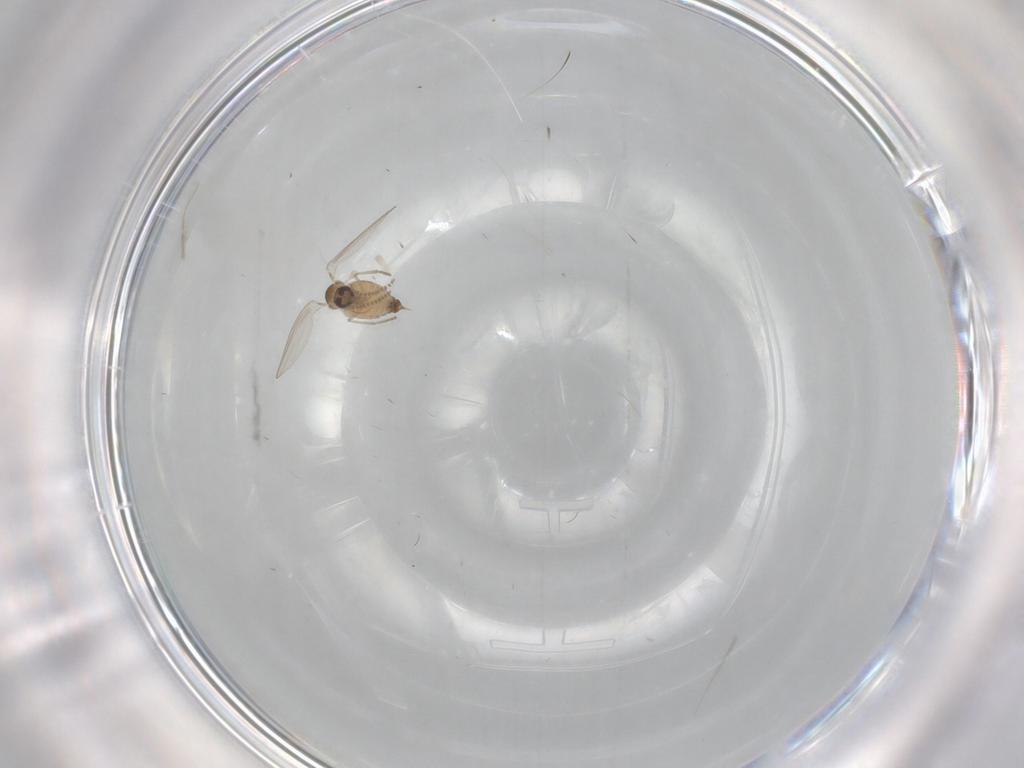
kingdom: Animalia
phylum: Arthropoda
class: Insecta
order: Diptera
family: Psychodidae
